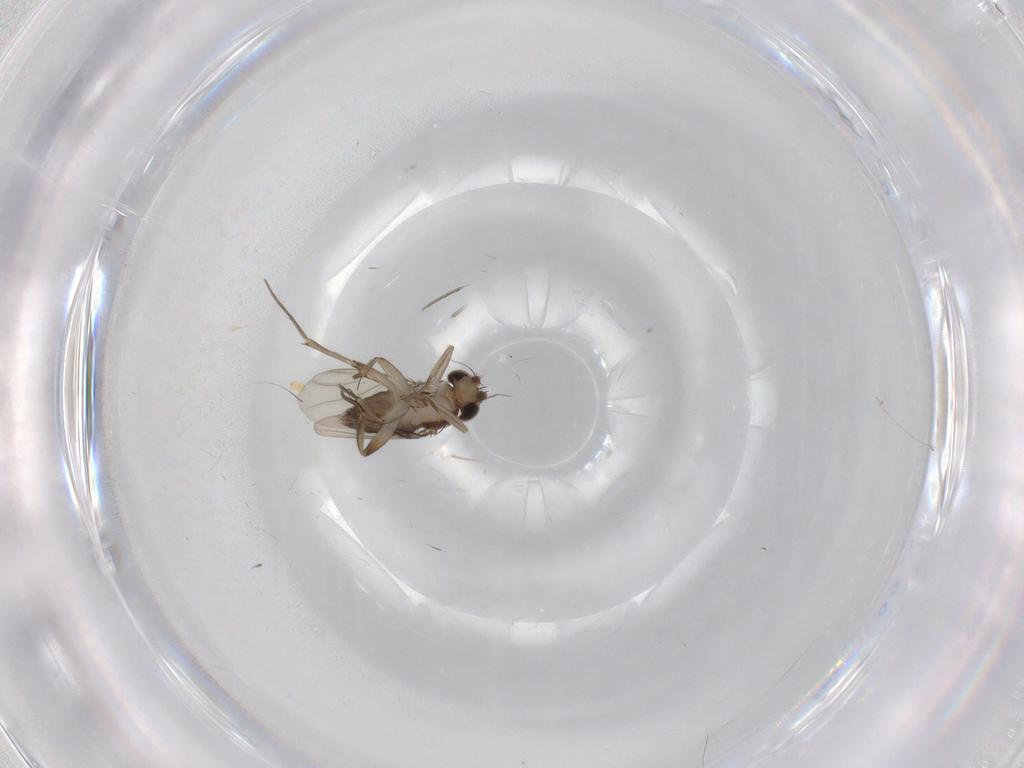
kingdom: Animalia
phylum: Arthropoda
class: Insecta
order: Diptera
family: Phoridae
